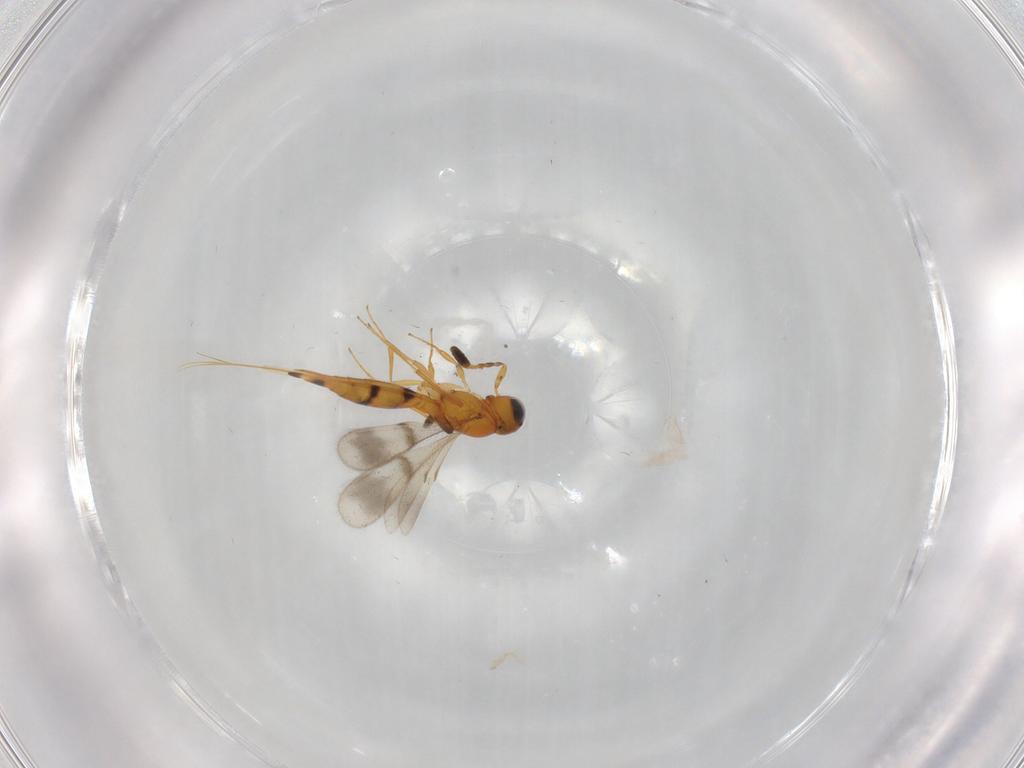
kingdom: Animalia
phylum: Arthropoda
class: Insecta
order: Hymenoptera
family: Scelionidae
